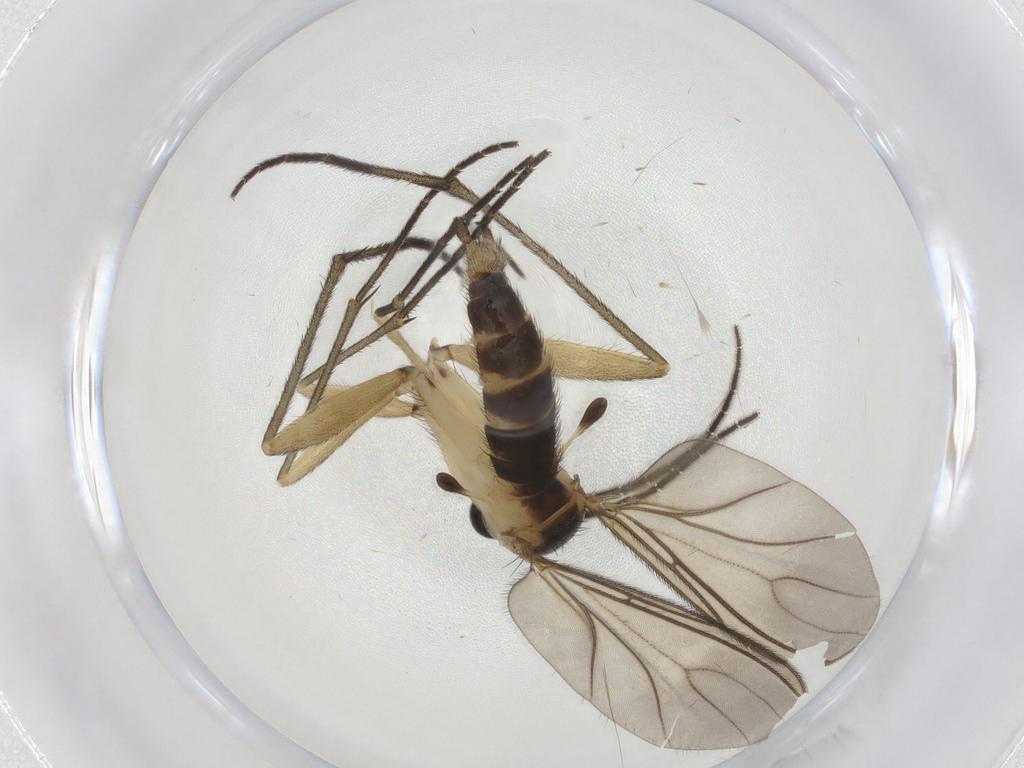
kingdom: Animalia
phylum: Arthropoda
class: Insecta
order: Diptera
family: Sciaridae
